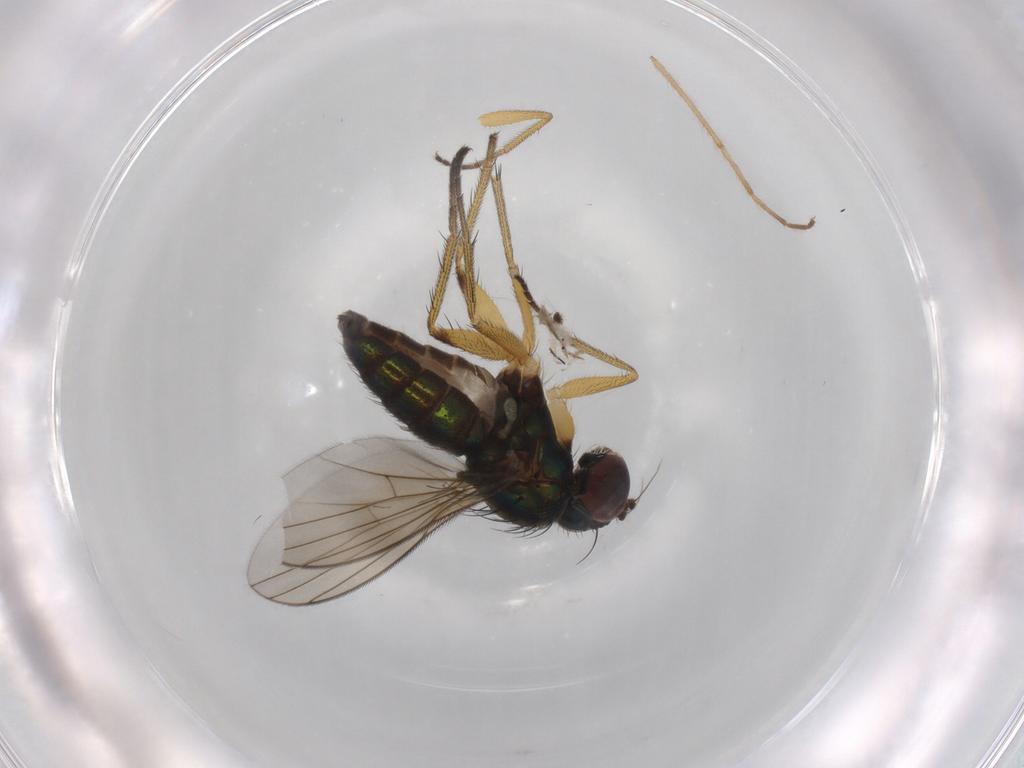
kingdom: Animalia
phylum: Arthropoda
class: Insecta
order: Diptera
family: Dolichopodidae
